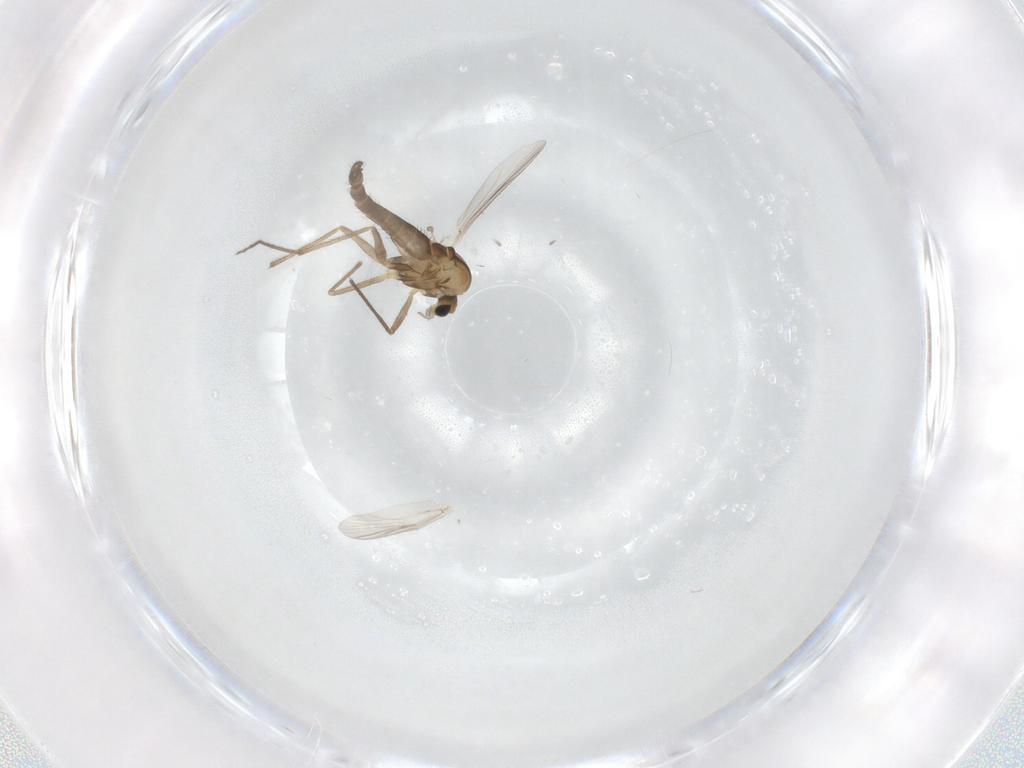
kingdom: Animalia
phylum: Arthropoda
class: Insecta
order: Diptera
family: Chironomidae
